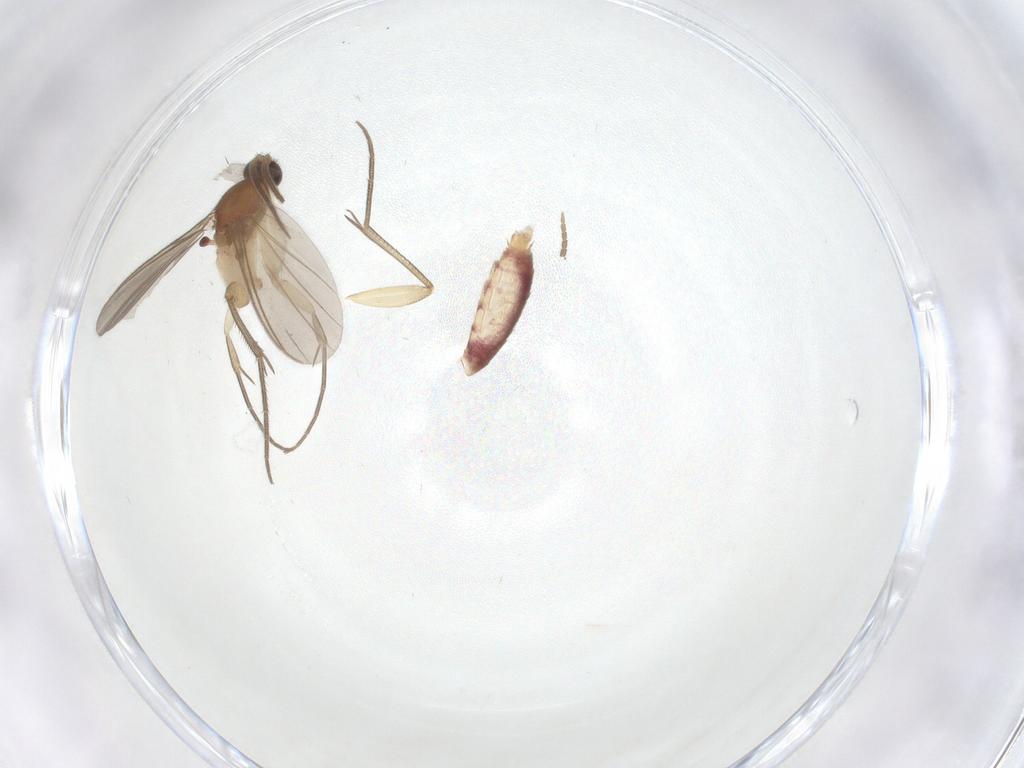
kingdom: Animalia
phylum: Arthropoda
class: Insecta
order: Diptera
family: Mycetophilidae
